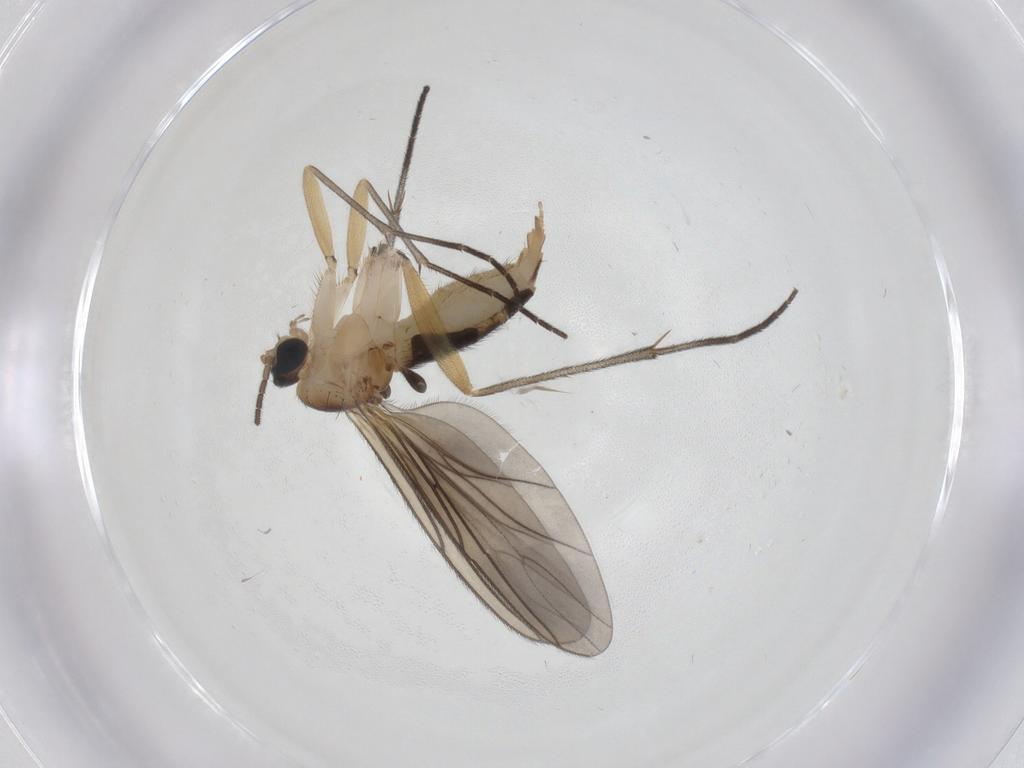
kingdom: Animalia
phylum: Arthropoda
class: Insecta
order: Diptera
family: Sciaridae
